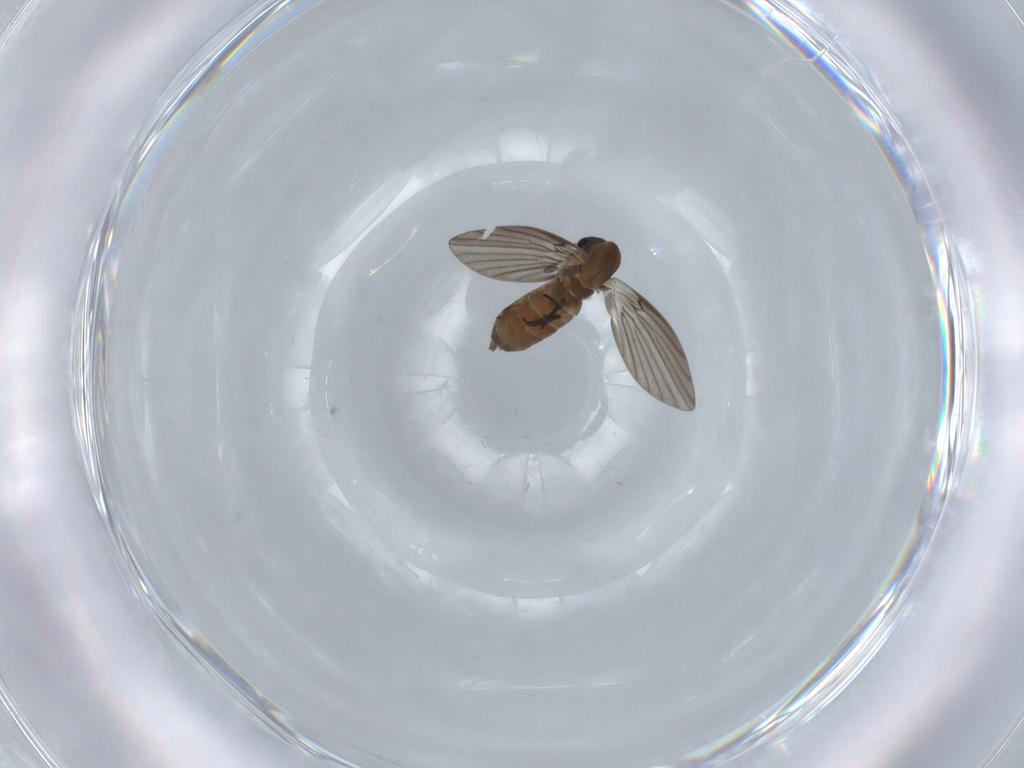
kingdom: Animalia
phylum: Arthropoda
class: Insecta
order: Diptera
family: Psychodidae
